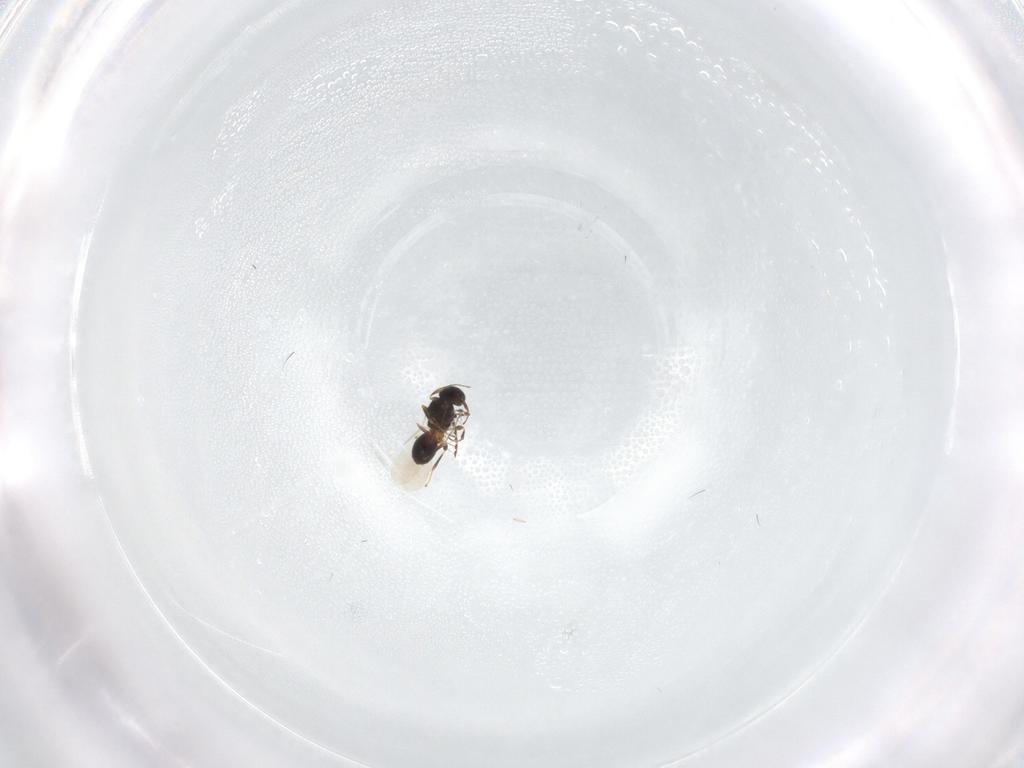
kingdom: Animalia
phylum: Arthropoda
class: Insecta
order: Hymenoptera
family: Platygastridae
